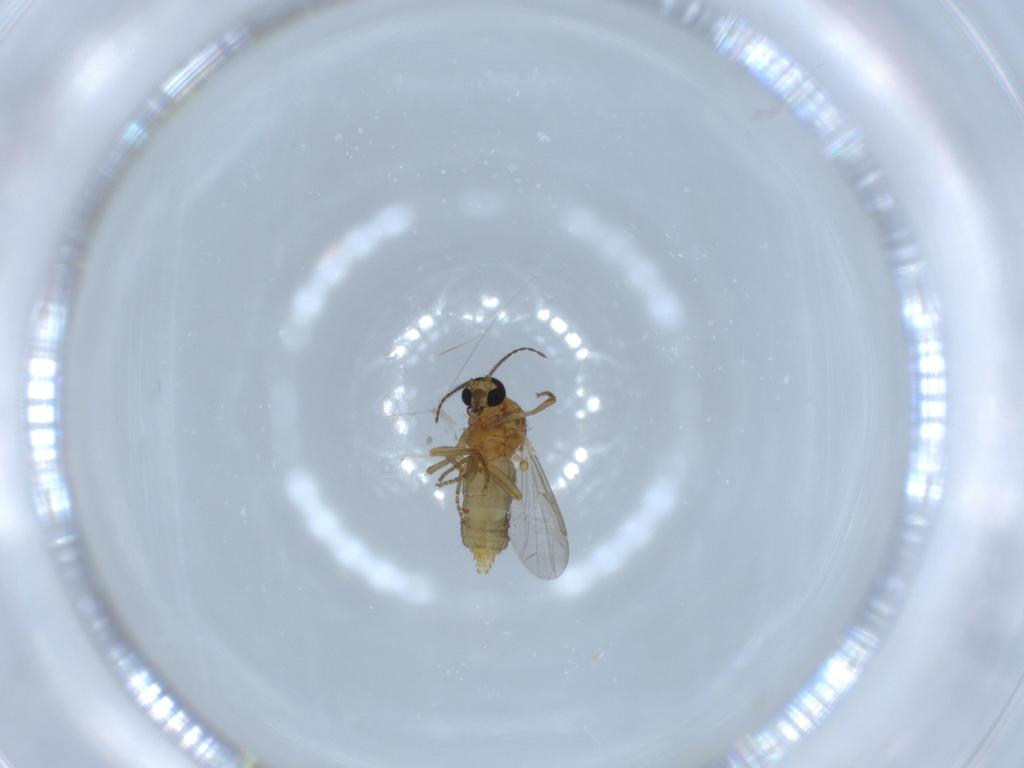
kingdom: Animalia
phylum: Arthropoda
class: Insecta
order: Diptera
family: Ceratopogonidae
